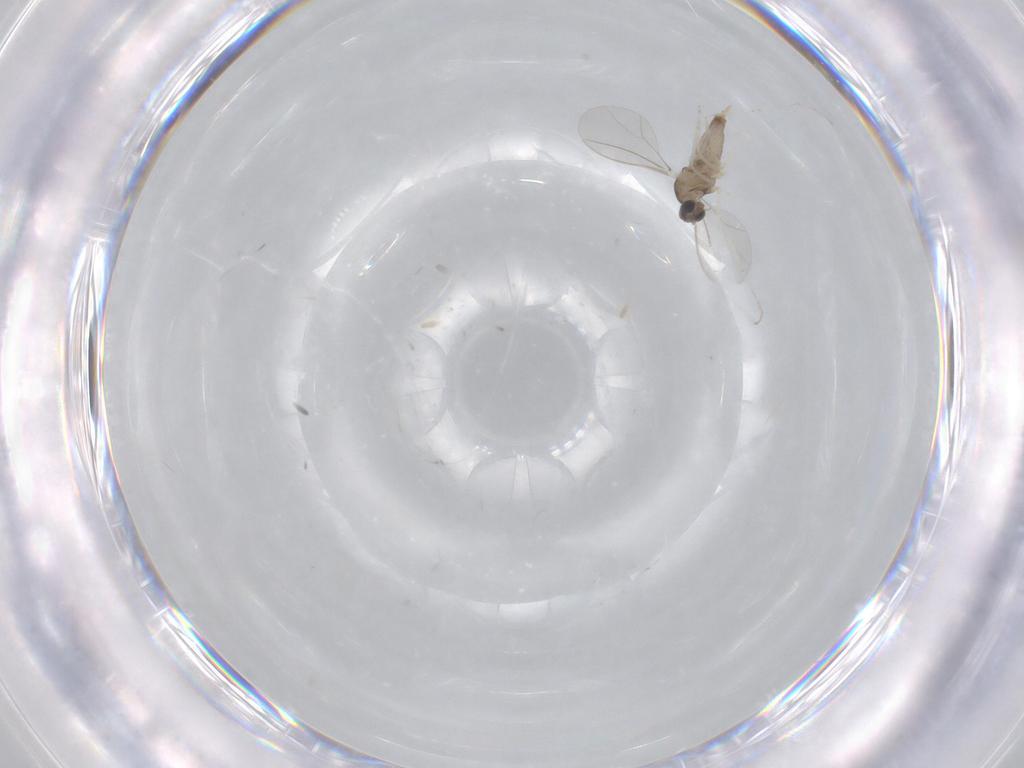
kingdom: Animalia
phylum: Arthropoda
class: Insecta
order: Diptera
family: Cecidomyiidae
